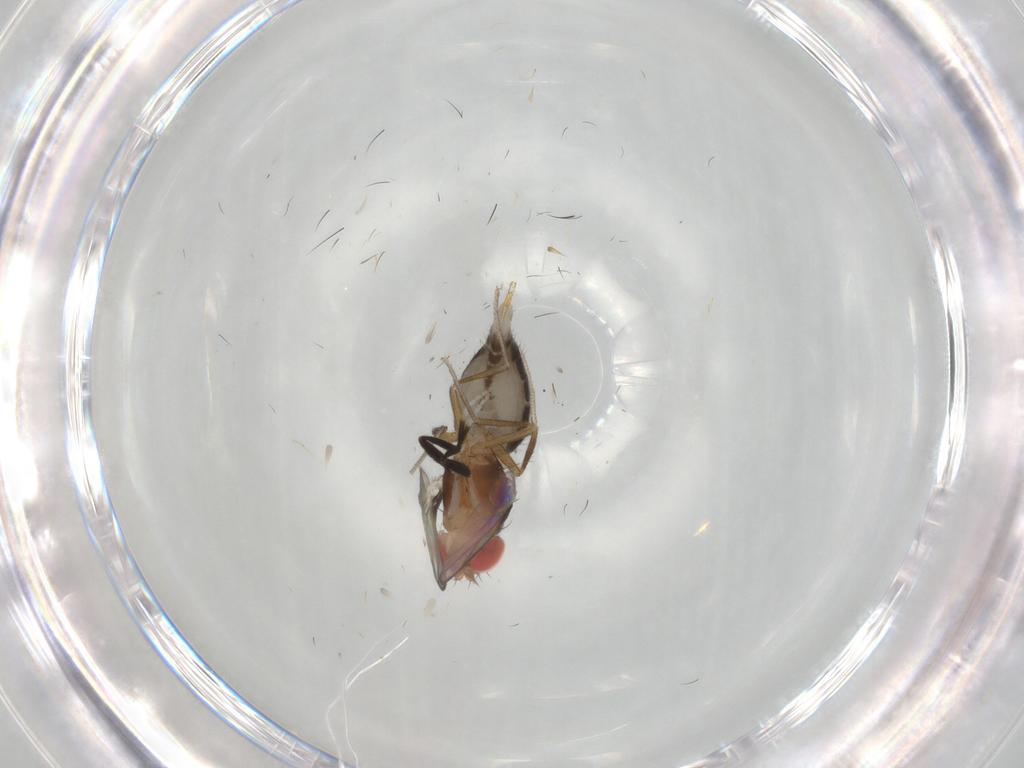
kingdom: Animalia
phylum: Arthropoda
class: Insecta
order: Diptera
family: Drosophilidae
